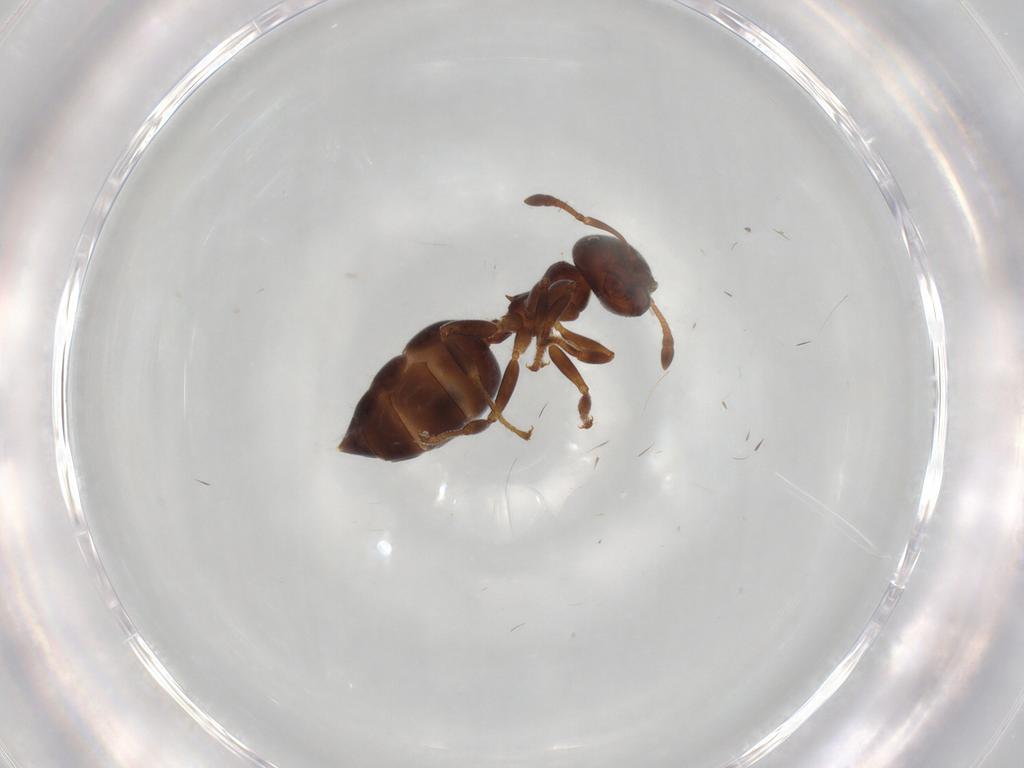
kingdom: Animalia
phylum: Arthropoda
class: Insecta
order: Hymenoptera
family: Formicidae
